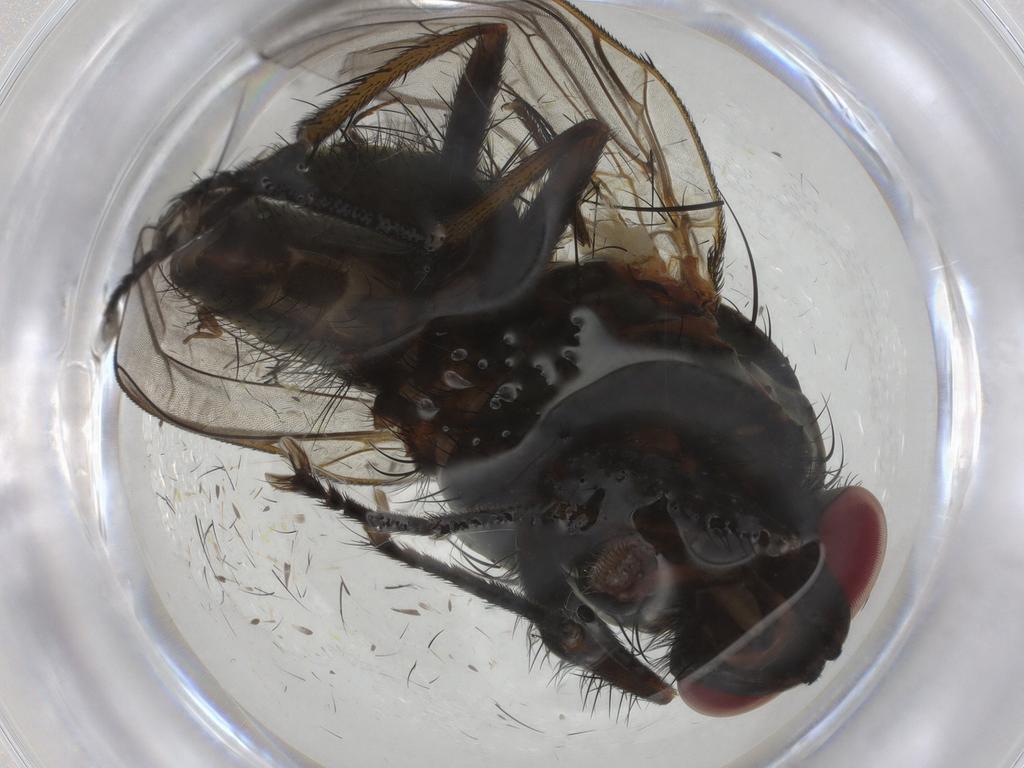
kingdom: Animalia
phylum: Arthropoda
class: Insecta
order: Diptera
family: Anthomyiidae
